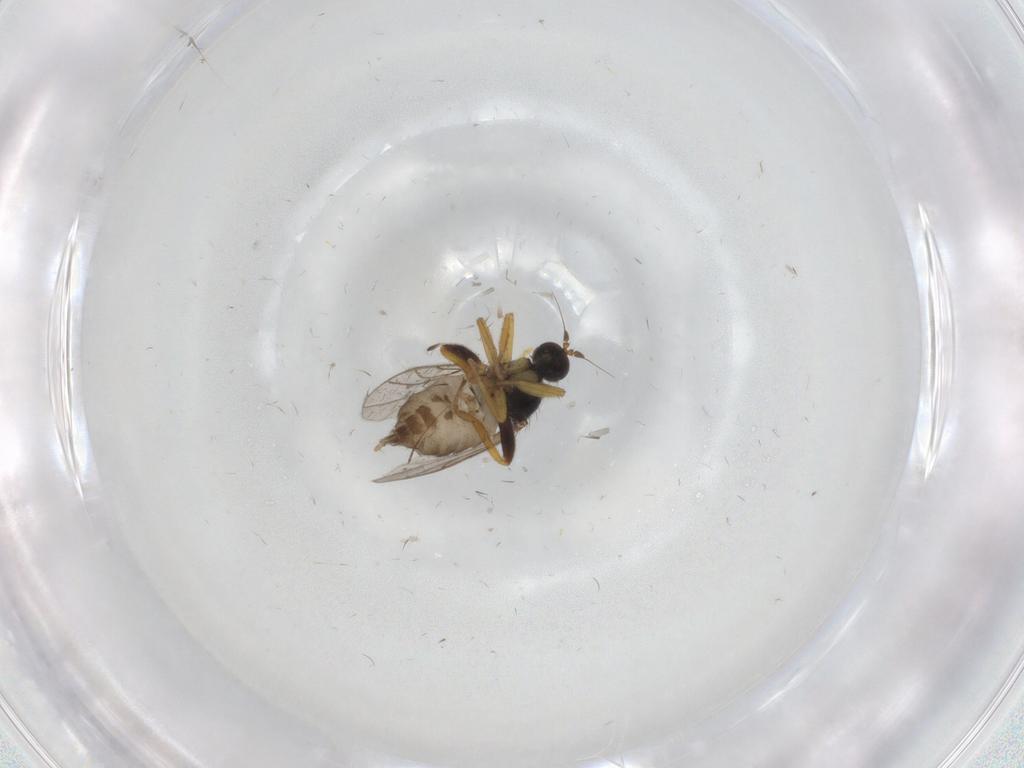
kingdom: Animalia
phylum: Arthropoda
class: Insecta
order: Diptera
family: Hybotidae
